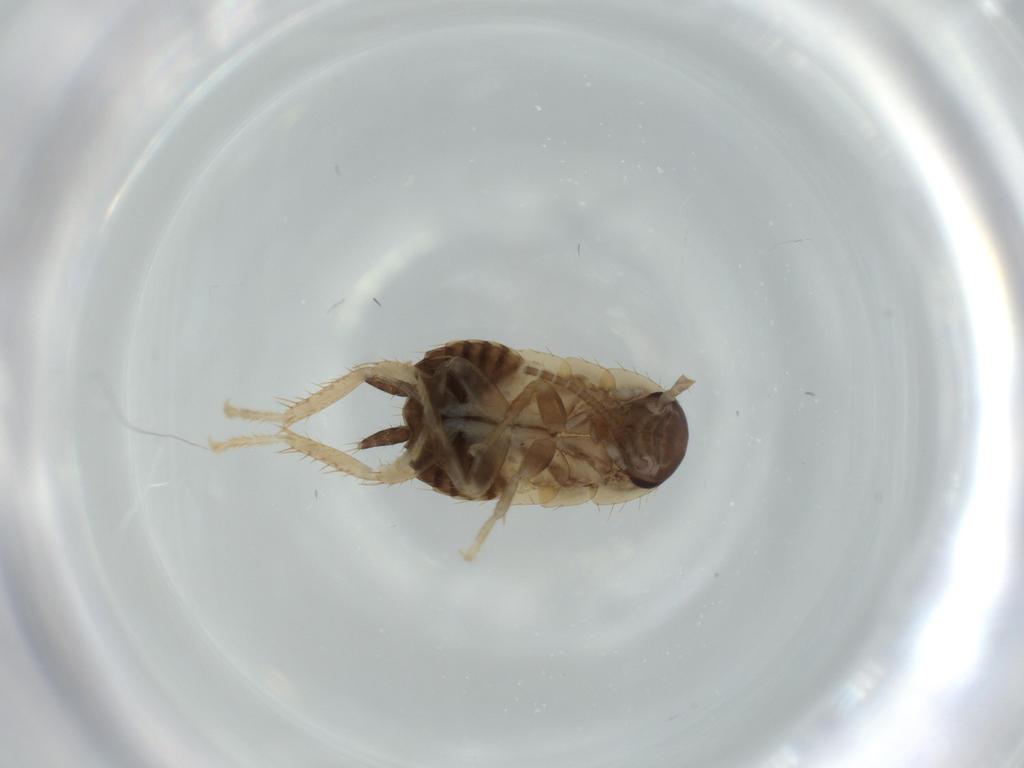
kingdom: Animalia
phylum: Arthropoda
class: Insecta
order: Blattodea
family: Ectobiidae
